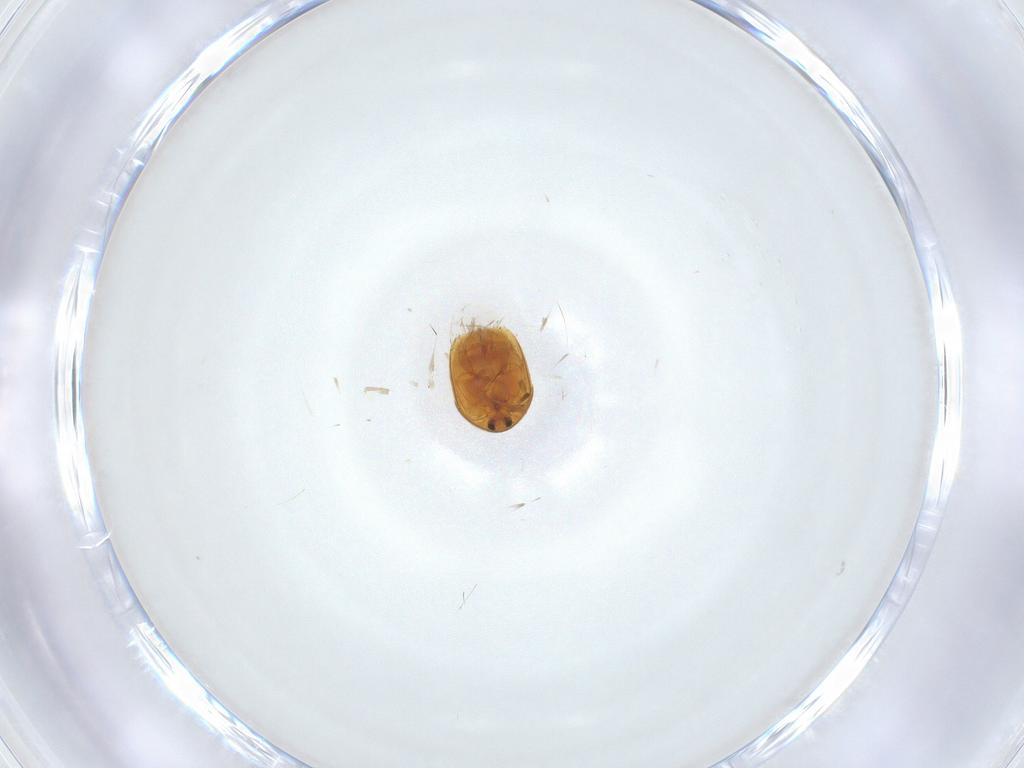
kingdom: Animalia
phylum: Arthropoda
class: Insecta
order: Coleoptera
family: Corylophidae
